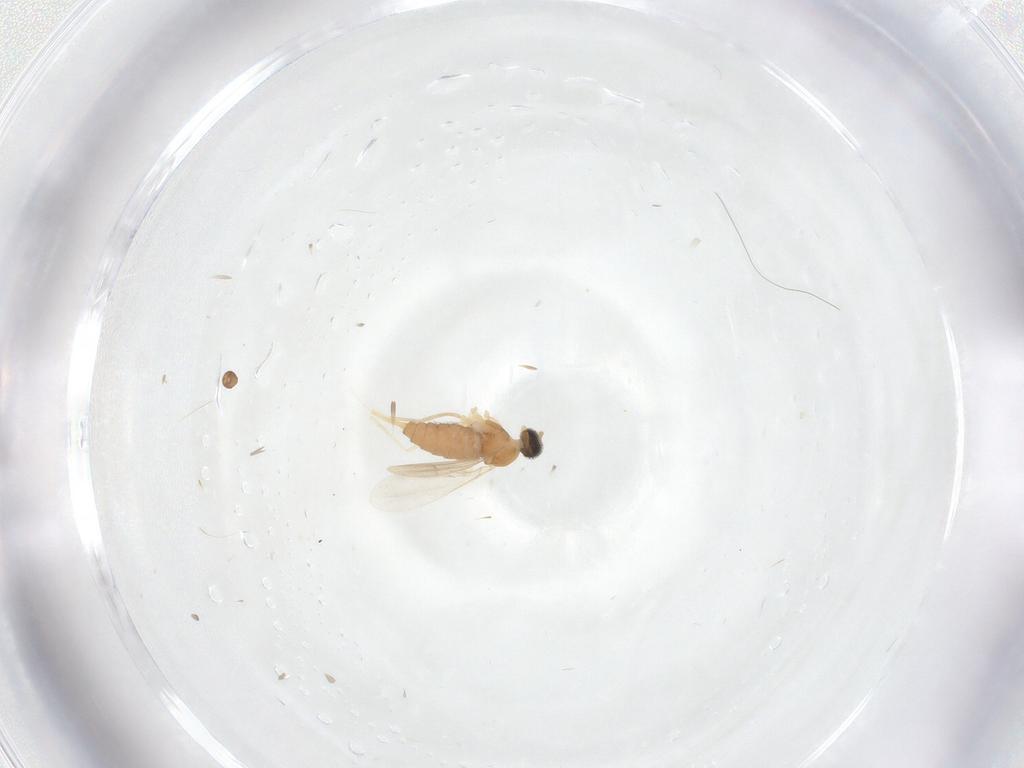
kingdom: Animalia
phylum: Arthropoda
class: Insecta
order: Diptera
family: Ceratopogonidae
